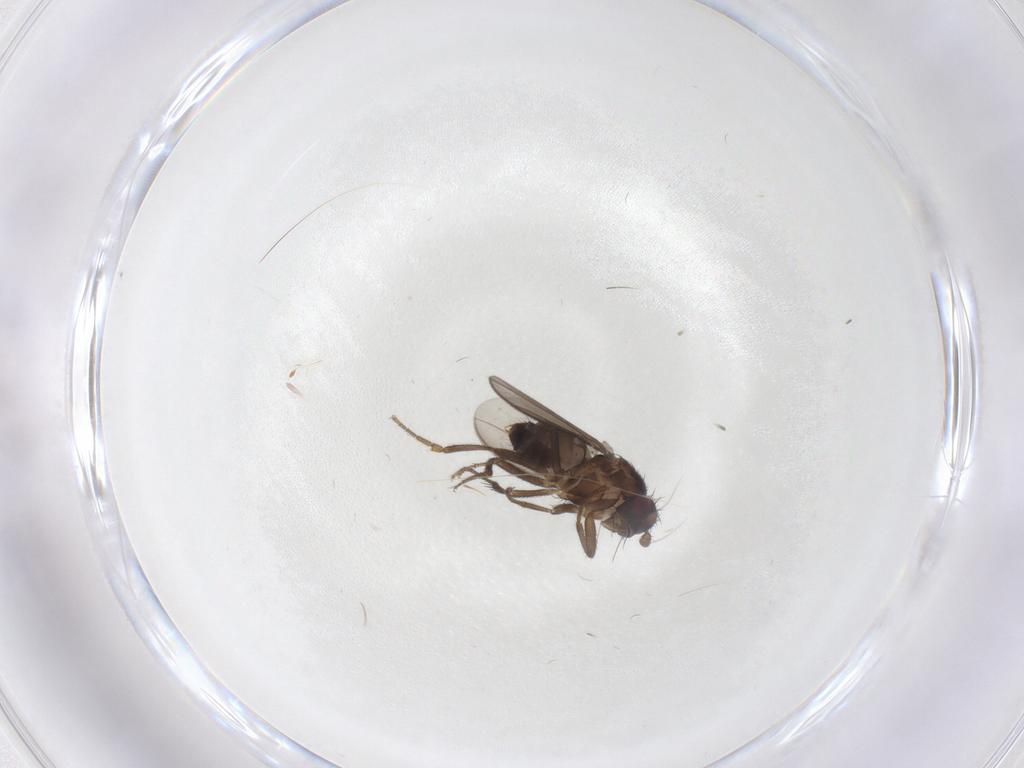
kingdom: Animalia
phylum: Arthropoda
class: Insecta
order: Diptera
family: Sphaeroceridae
